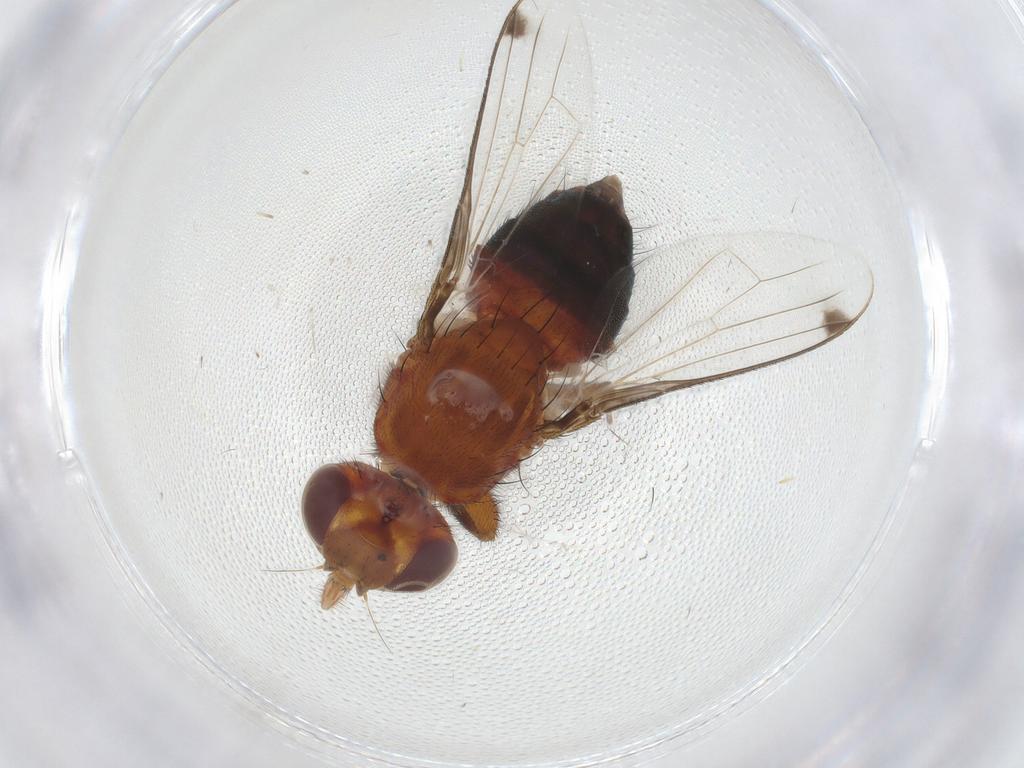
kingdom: Animalia
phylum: Arthropoda
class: Insecta
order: Diptera
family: Richardiidae
